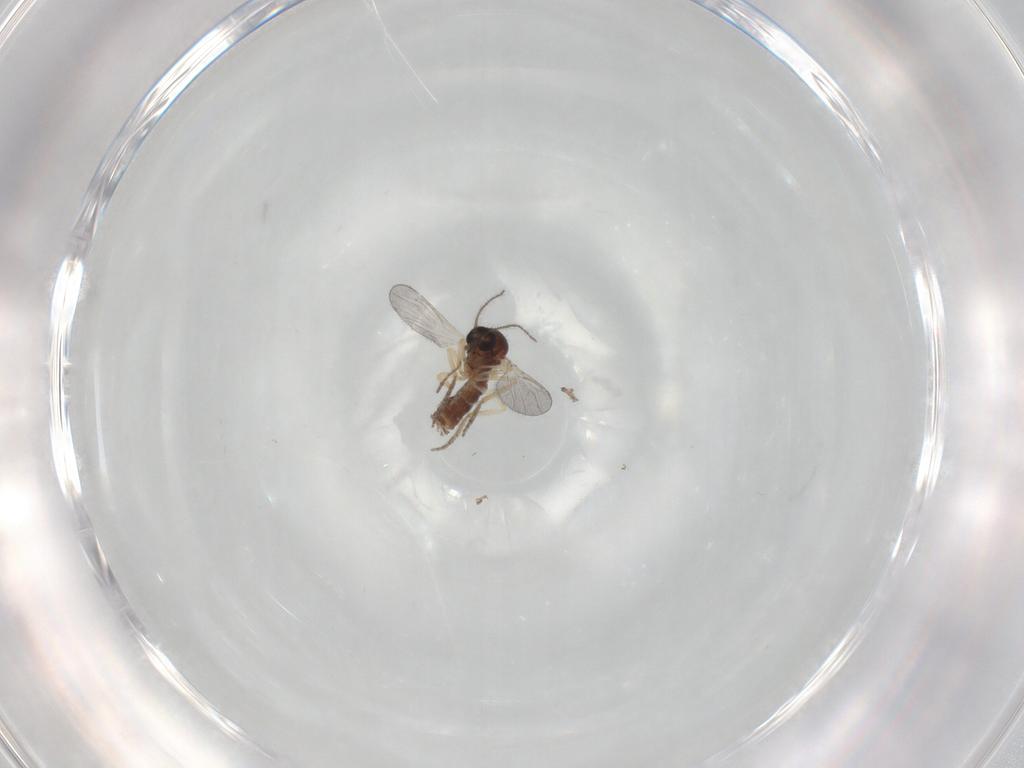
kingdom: Animalia
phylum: Arthropoda
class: Insecta
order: Diptera
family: Ceratopogonidae
